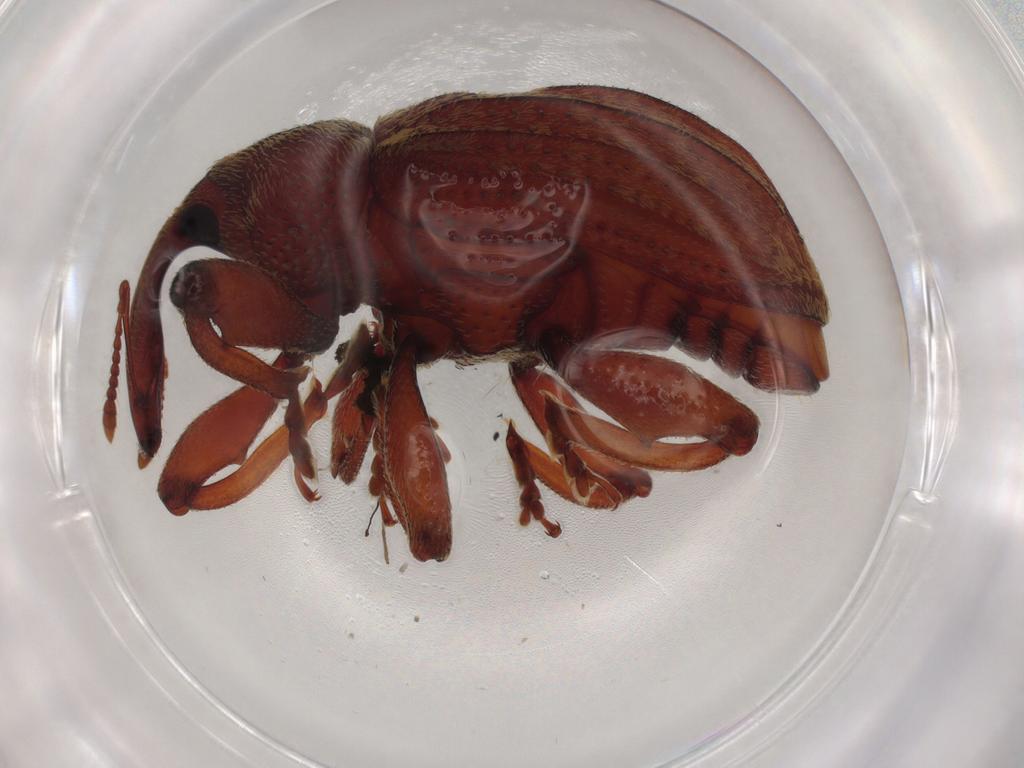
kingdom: Animalia
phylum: Arthropoda
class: Insecta
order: Coleoptera
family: Curculionidae
